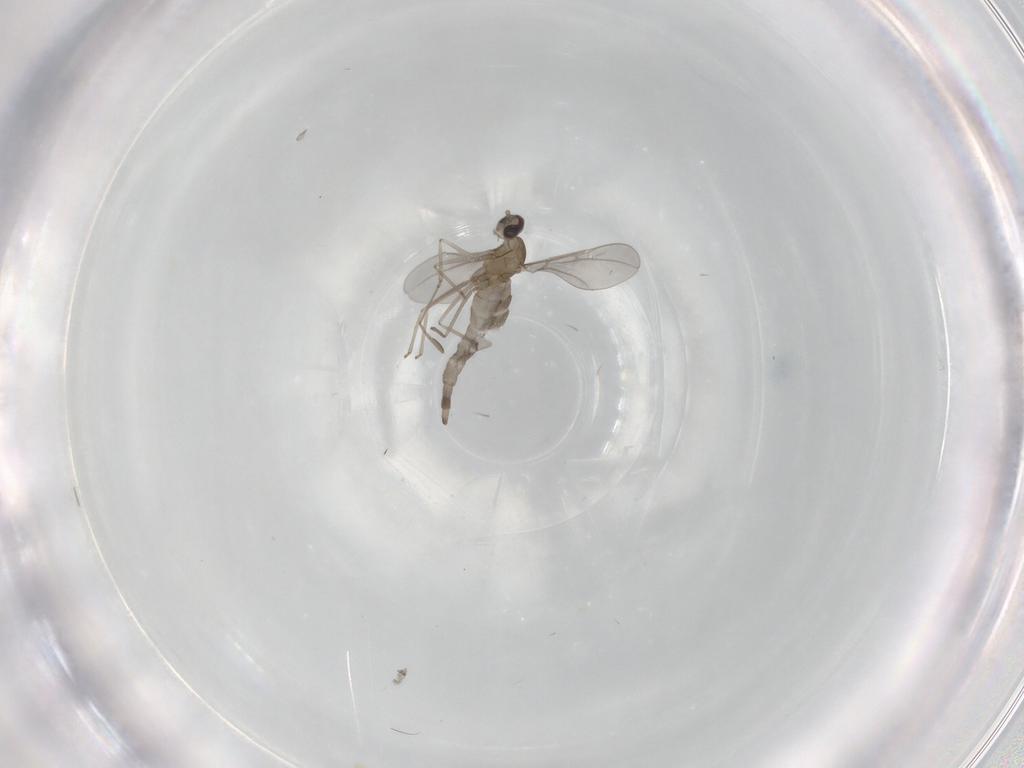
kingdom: Animalia
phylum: Arthropoda
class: Insecta
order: Diptera
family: Cecidomyiidae
